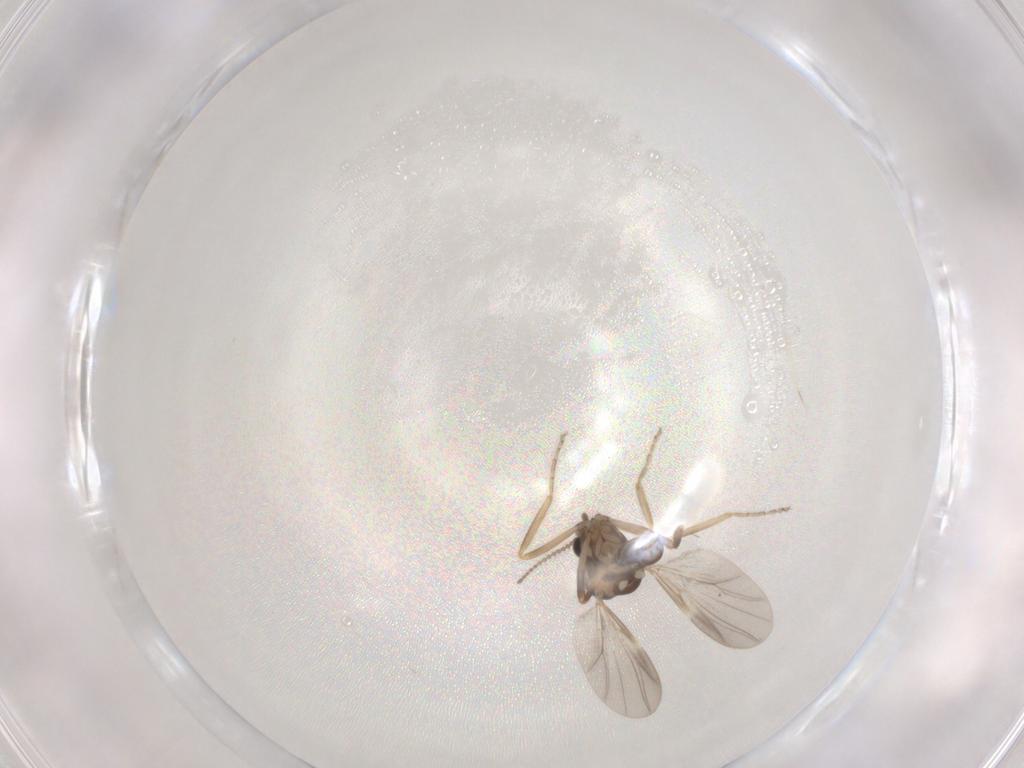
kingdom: Animalia
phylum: Arthropoda
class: Insecta
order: Diptera
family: Ceratopogonidae
